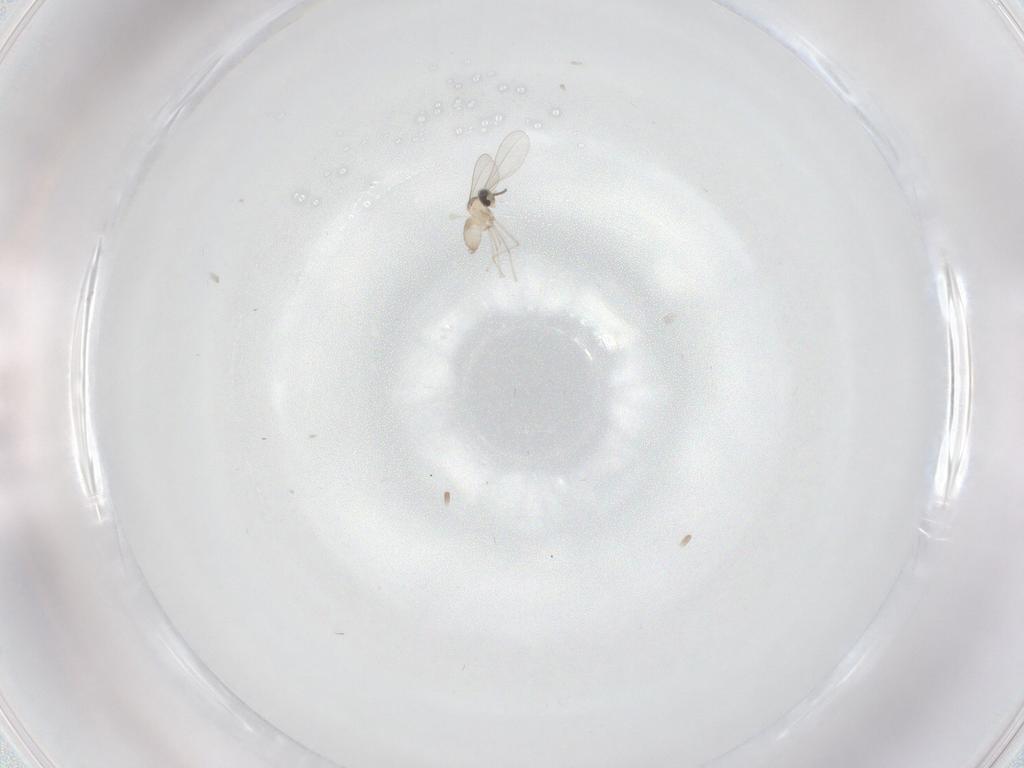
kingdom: Animalia
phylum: Arthropoda
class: Insecta
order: Diptera
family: Cecidomyiidae
